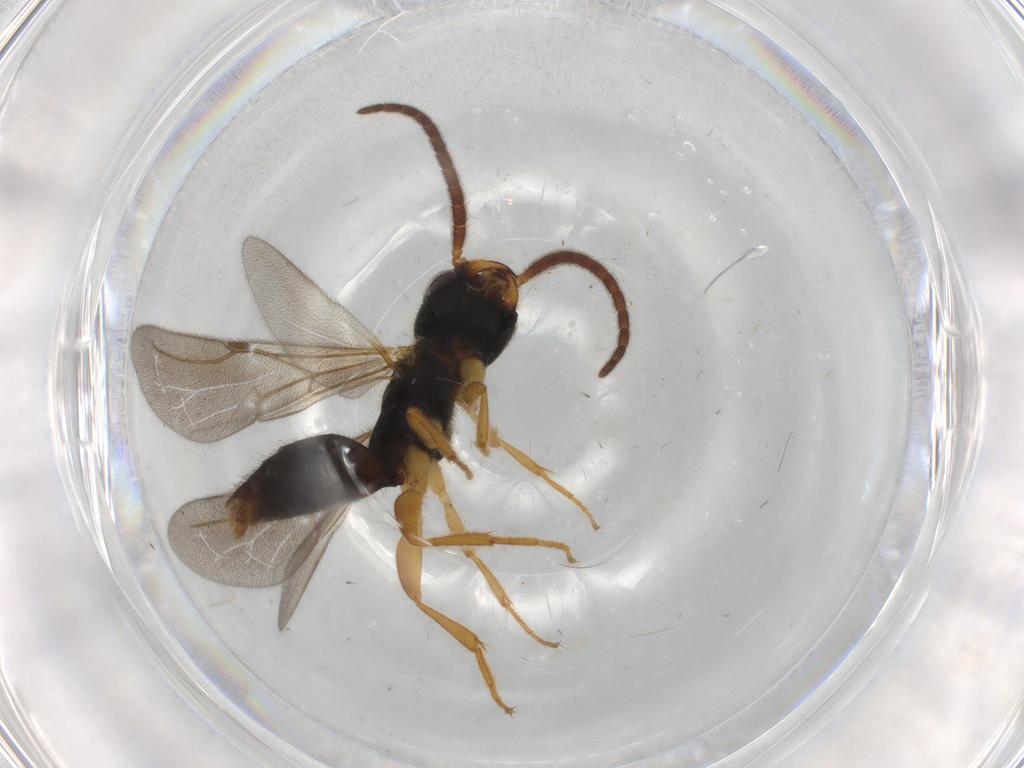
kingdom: Animalia
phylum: Arthropoda
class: Insecta
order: Hymenoptera
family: Bethylidae
